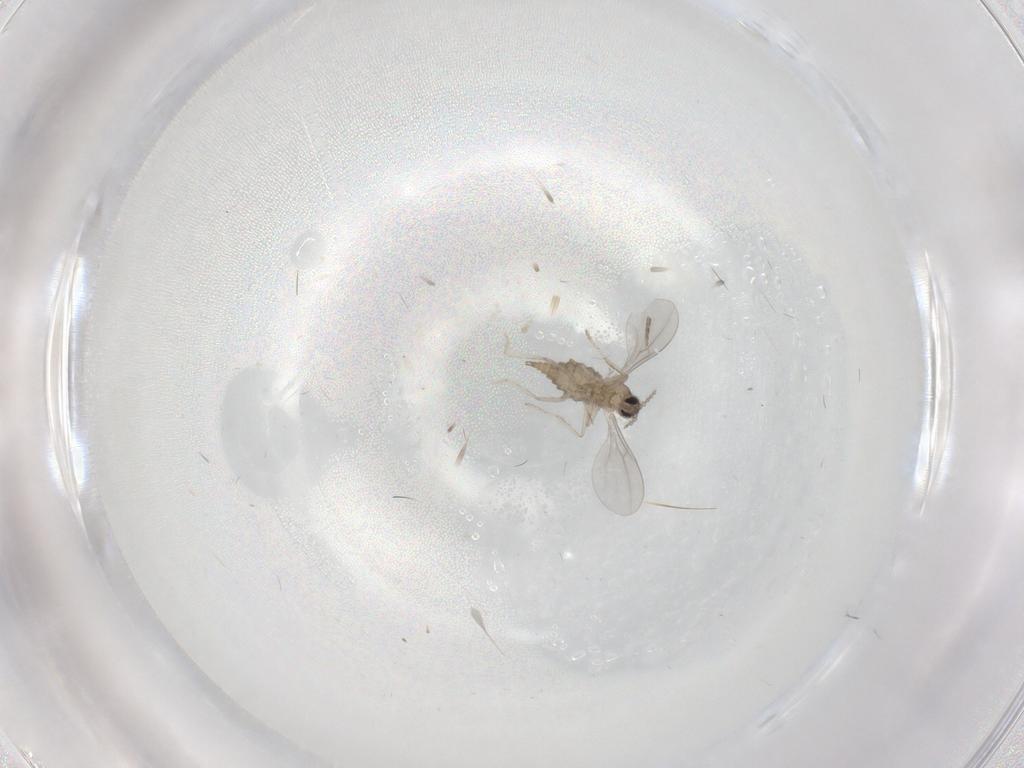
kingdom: Animalia
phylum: Arthropoda
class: Insecta
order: Diptera
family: Cecidomyiidae
